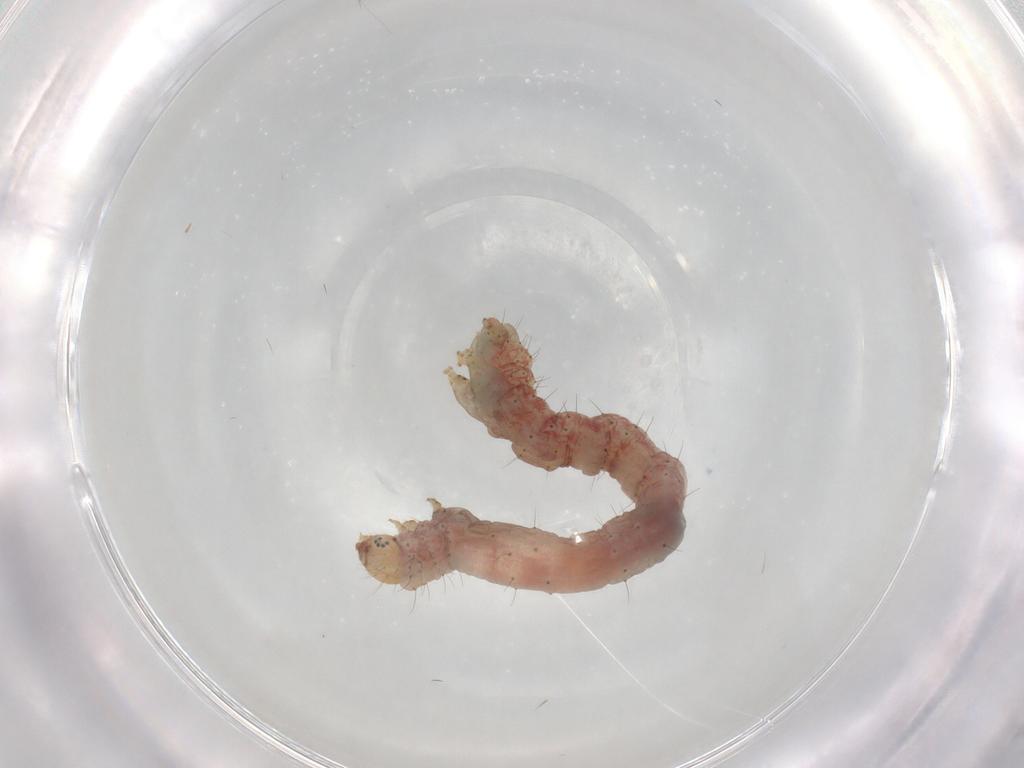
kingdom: Animalia
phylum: Arthropoda
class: Insecta
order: Lepidoptera
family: Geometridae
